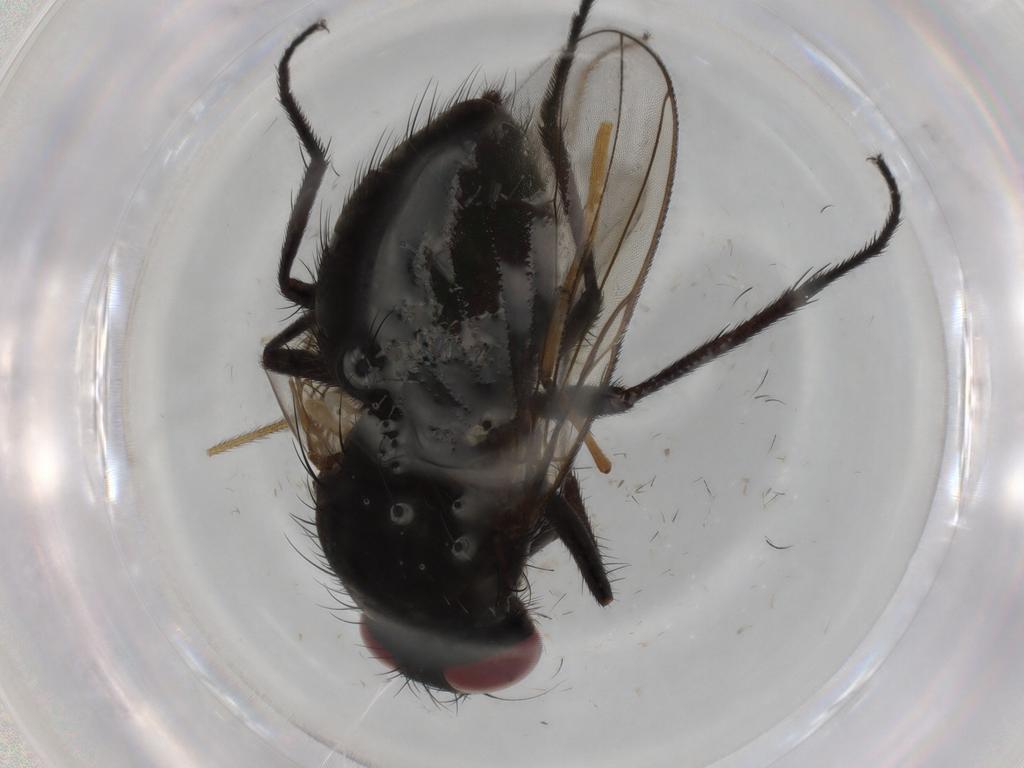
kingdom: Animalia
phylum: Arthropoda
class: Insecta
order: Diptera
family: Muscidae
